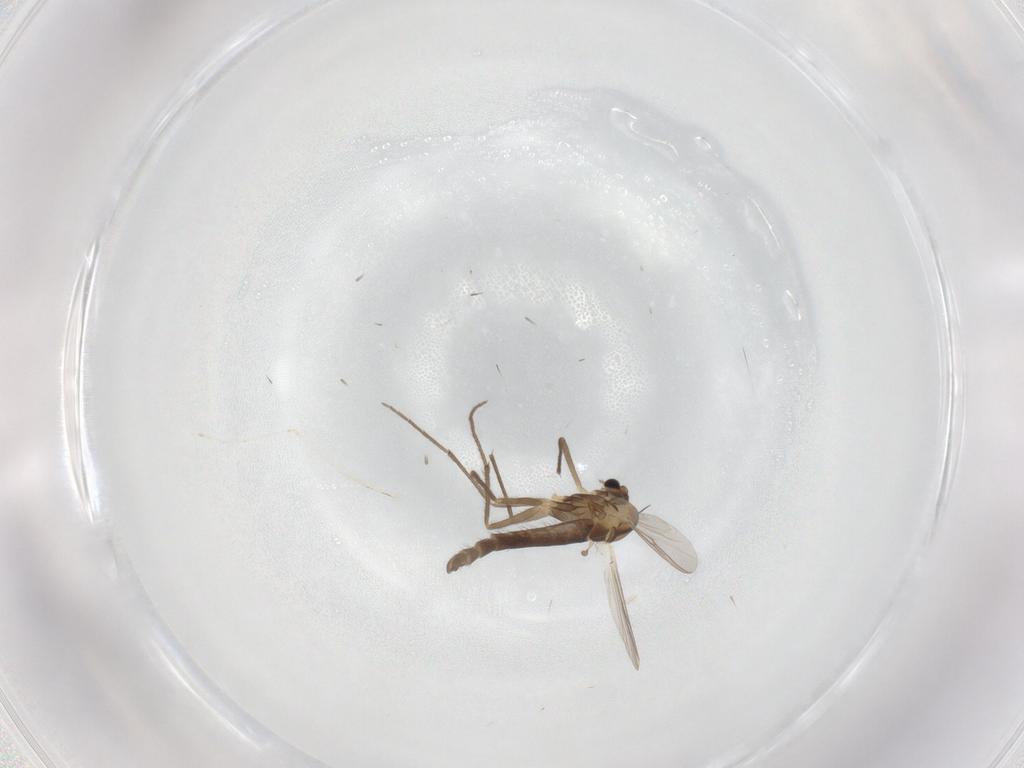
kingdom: Animalia
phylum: Arthropoda
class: Insecta
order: Diptera
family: Chironomidae
